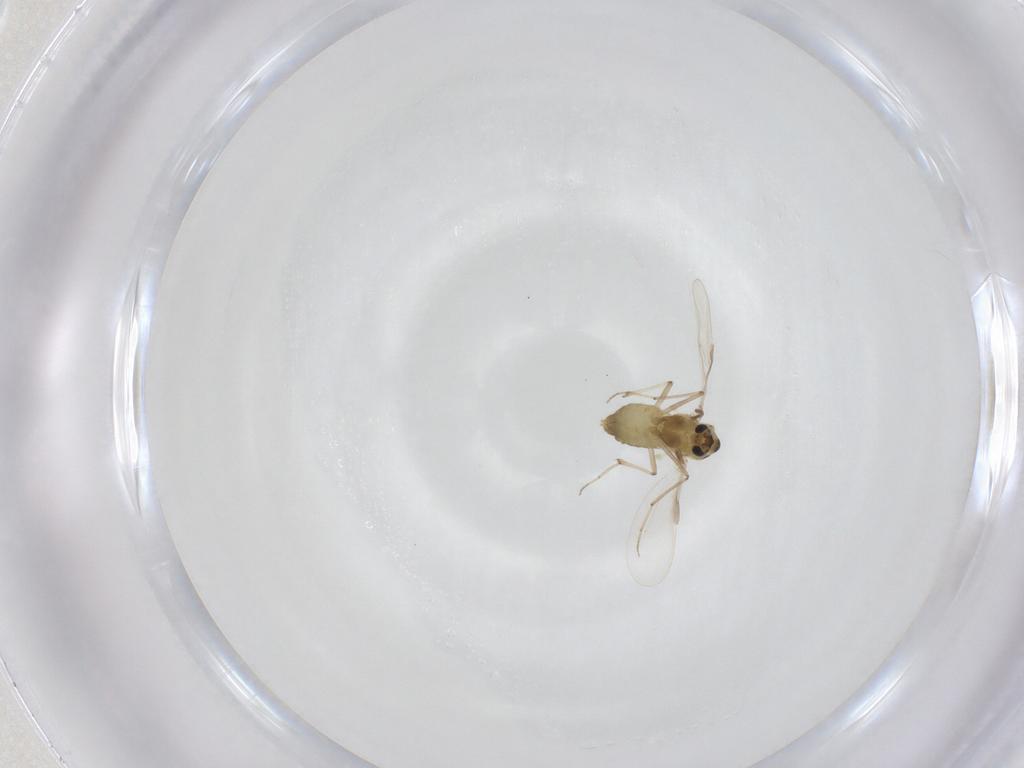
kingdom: Animalia
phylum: Arthropoda
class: Insecta
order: Diptera
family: Chironomidae
